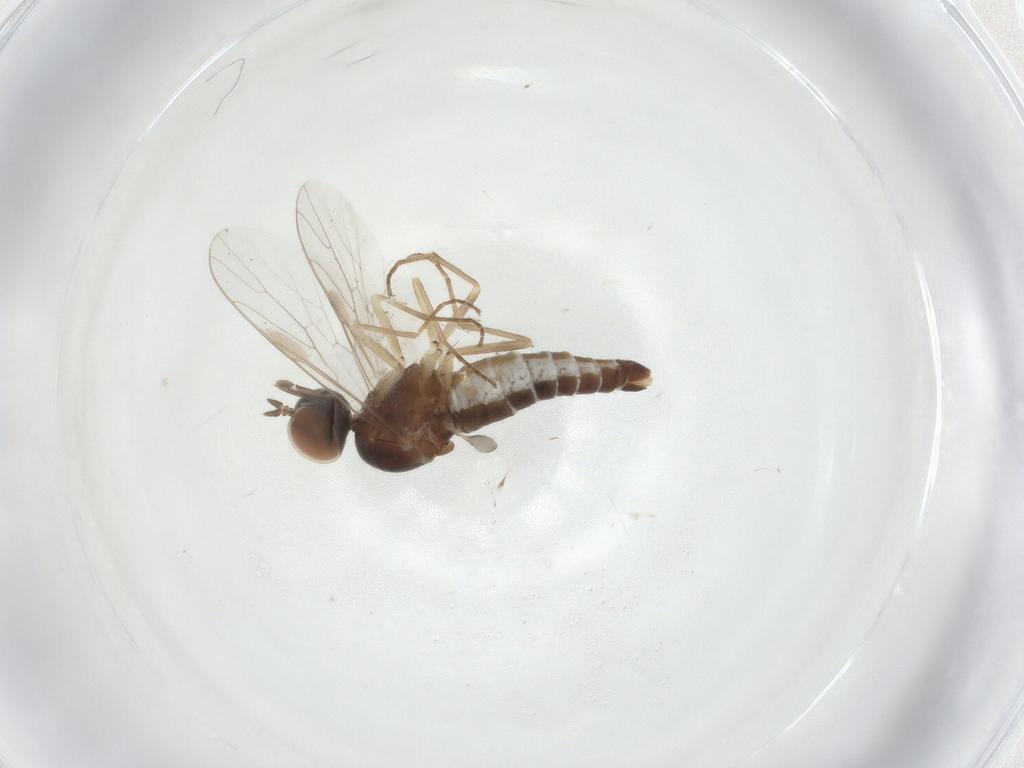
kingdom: Animalia
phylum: Arthropoda
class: Insecta
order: Diptera
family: Scenopinidae
